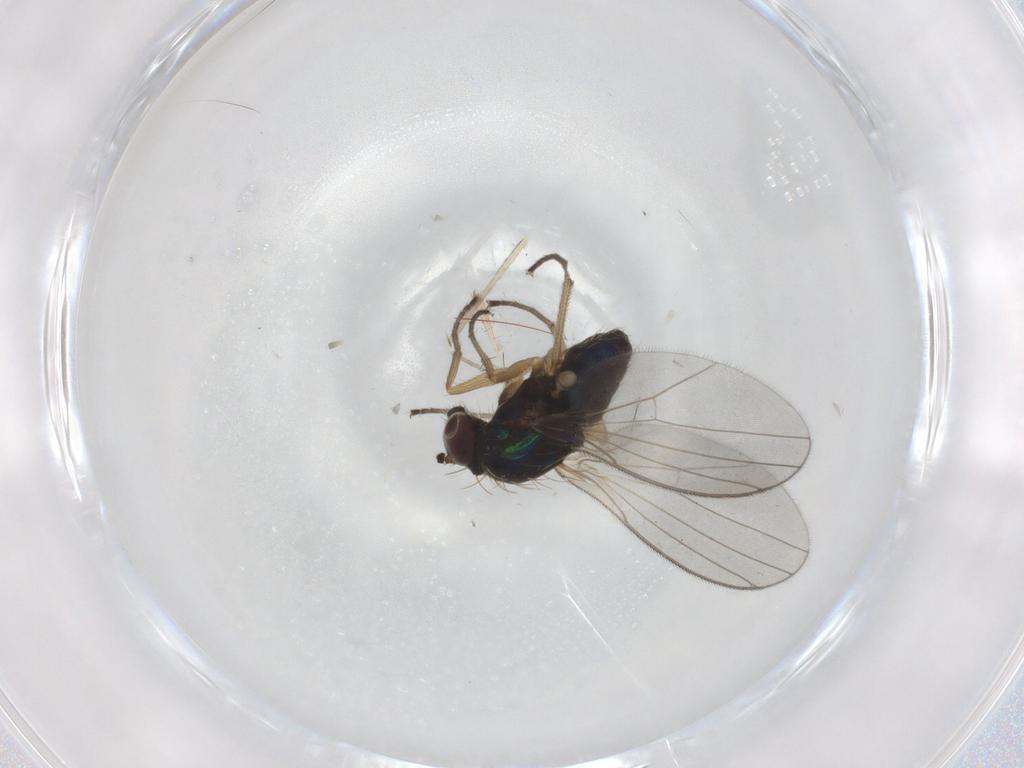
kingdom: Animalia
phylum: Arthropoda
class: Insecta
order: Diptera
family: Dolichopodidae
